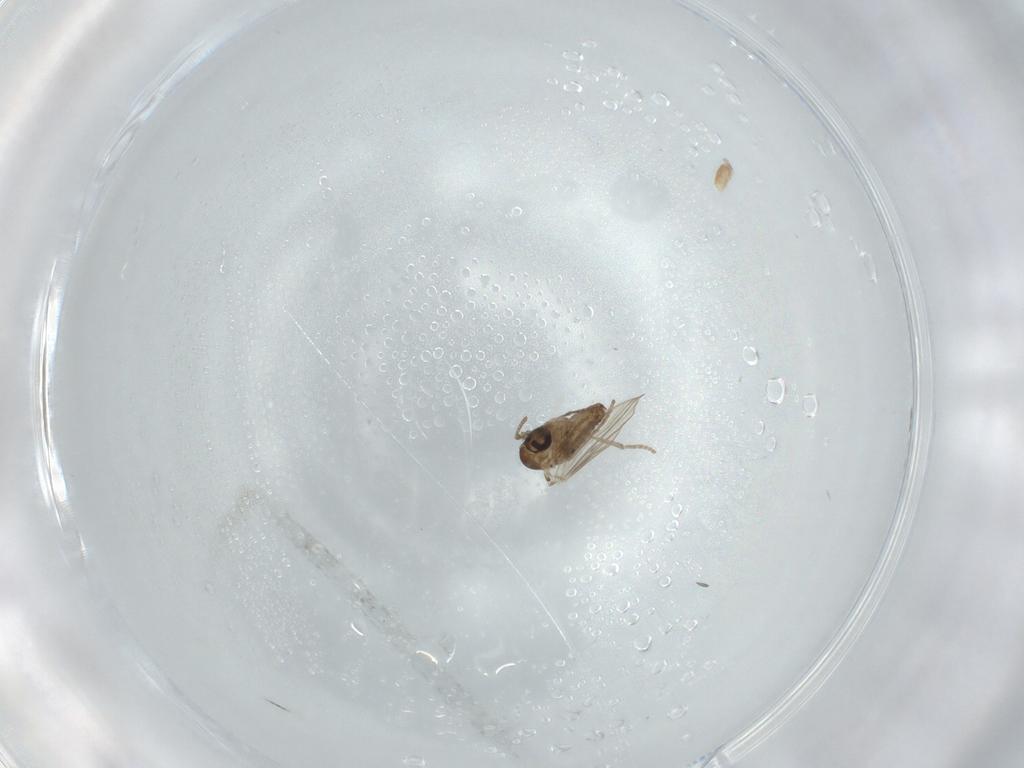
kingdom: Animalia
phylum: Arthropoda
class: Insecta
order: Diptera
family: Psychodidae
